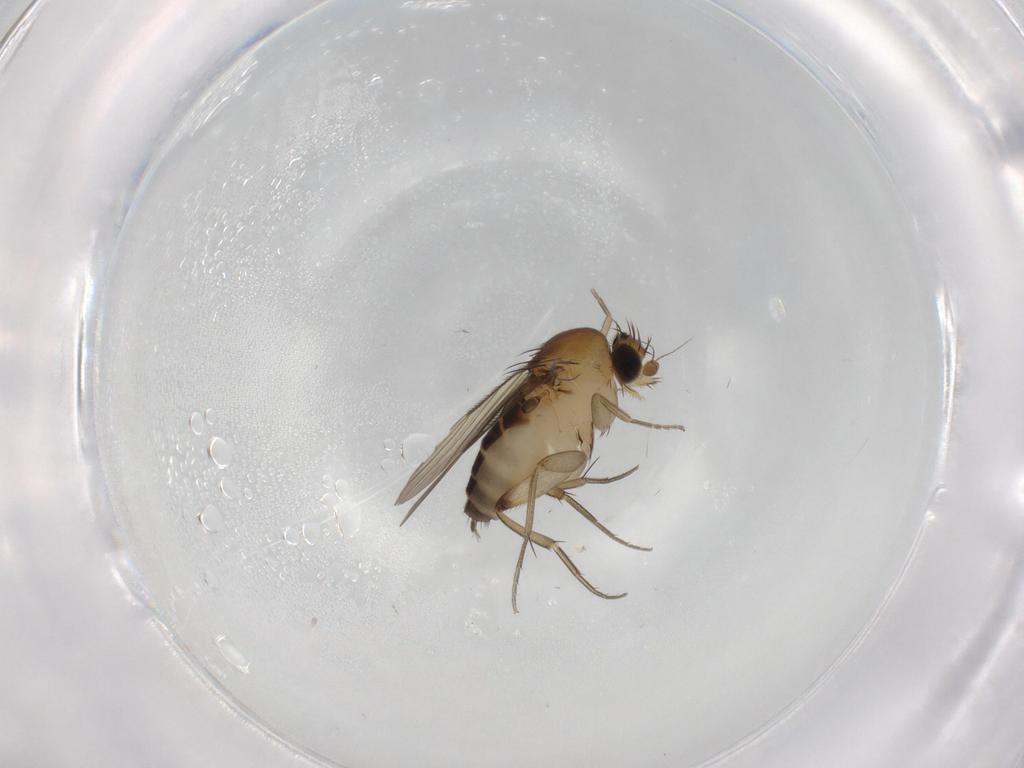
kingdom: Animalia
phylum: Arthropoda
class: Insecta
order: Diptera
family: Phoridae
